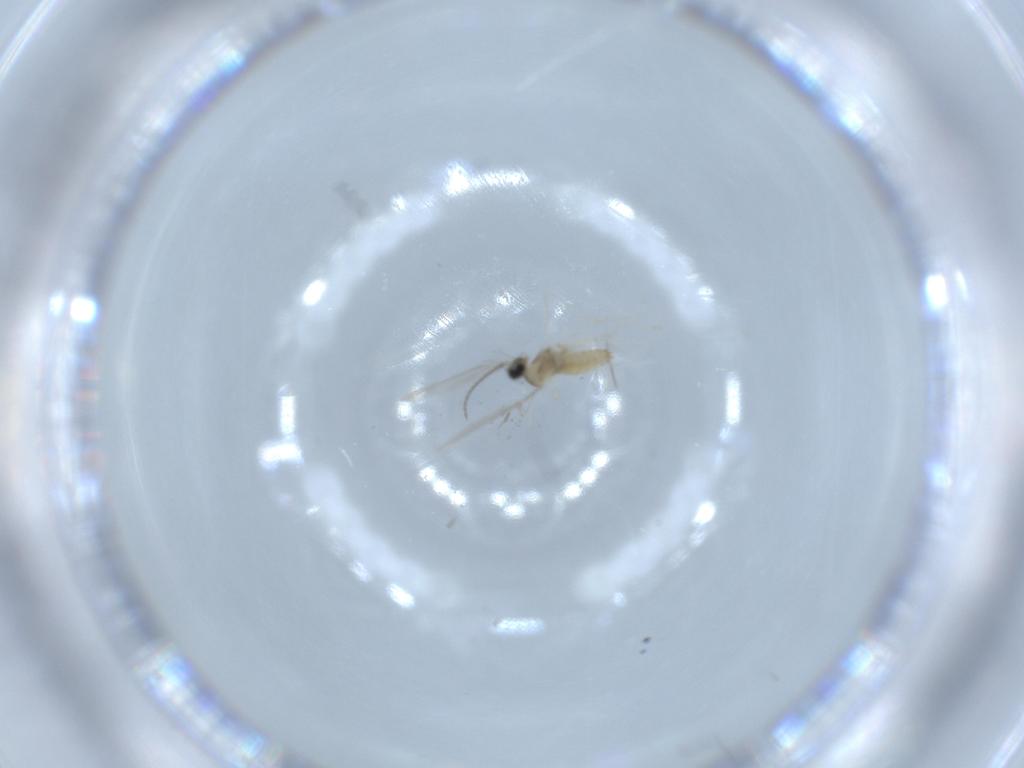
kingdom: Animalia
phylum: Arthropoda
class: Insecta
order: Diptera
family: Cecidomyiidae
